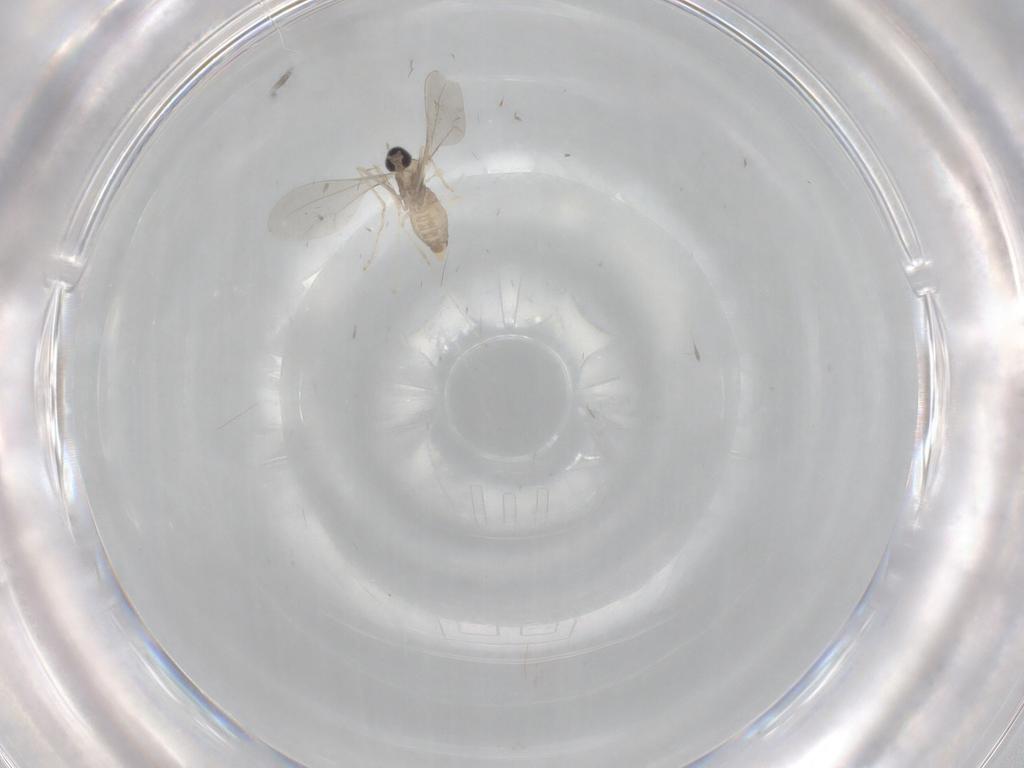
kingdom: Animalia
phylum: Arthropoda
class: Insecta
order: Diptera
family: Cecidomyiidae
